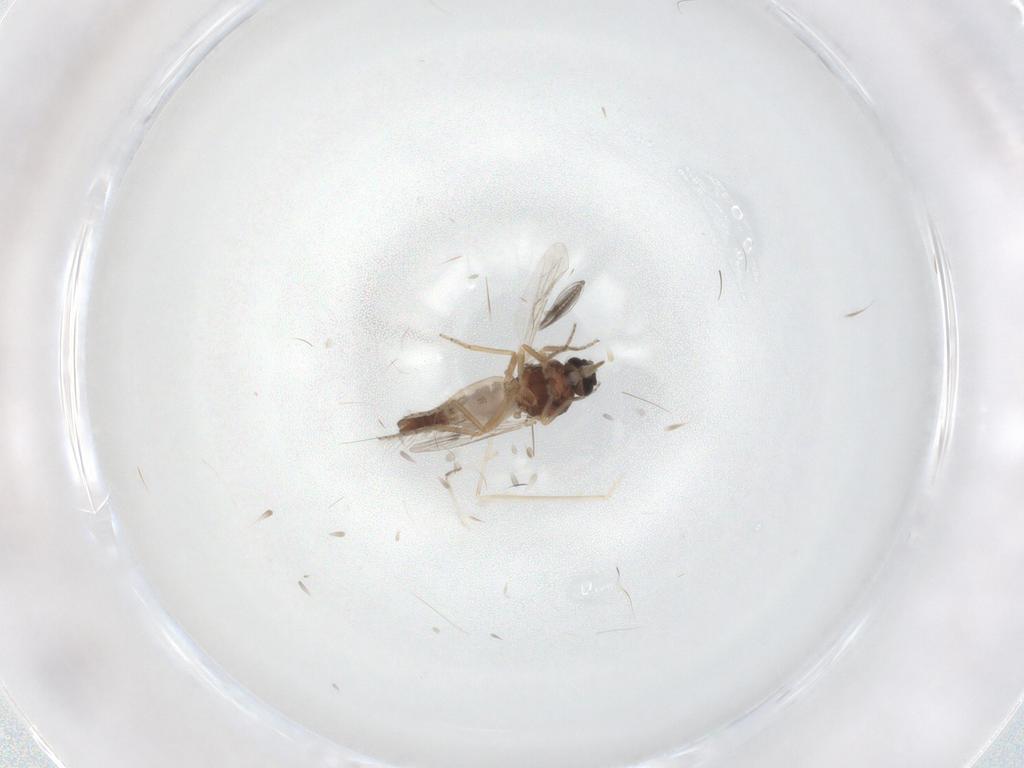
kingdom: Animalia
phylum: Arthropoda
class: Insecta
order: Diptera
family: Ceratopogonidae
